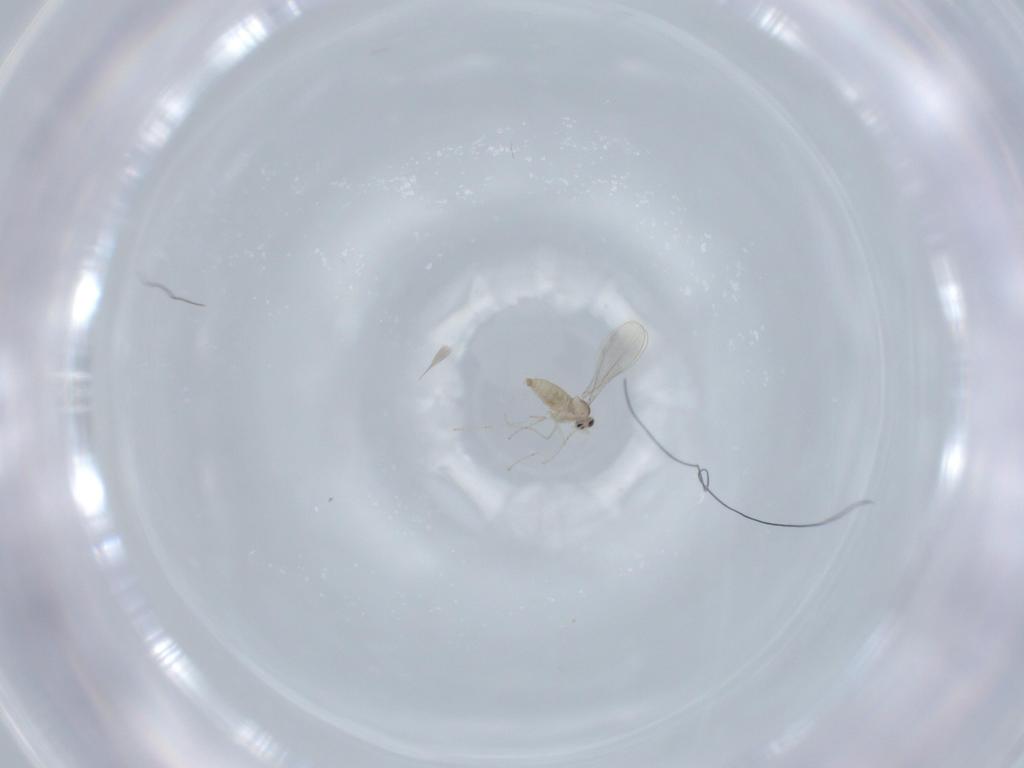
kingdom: Animalia
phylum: Arthropoda
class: Insecta
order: Diptera
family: Cecidomyiidae
